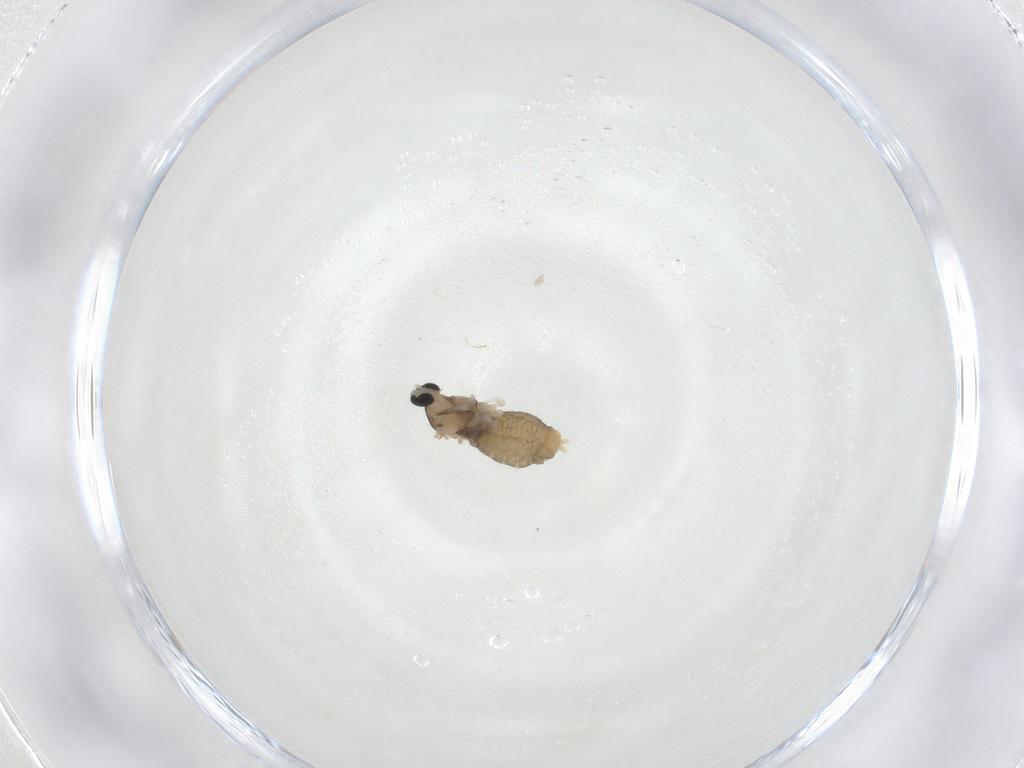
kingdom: Animalia
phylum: Arthropoda
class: Insecta
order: Diptera
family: Cecidomyiidae
